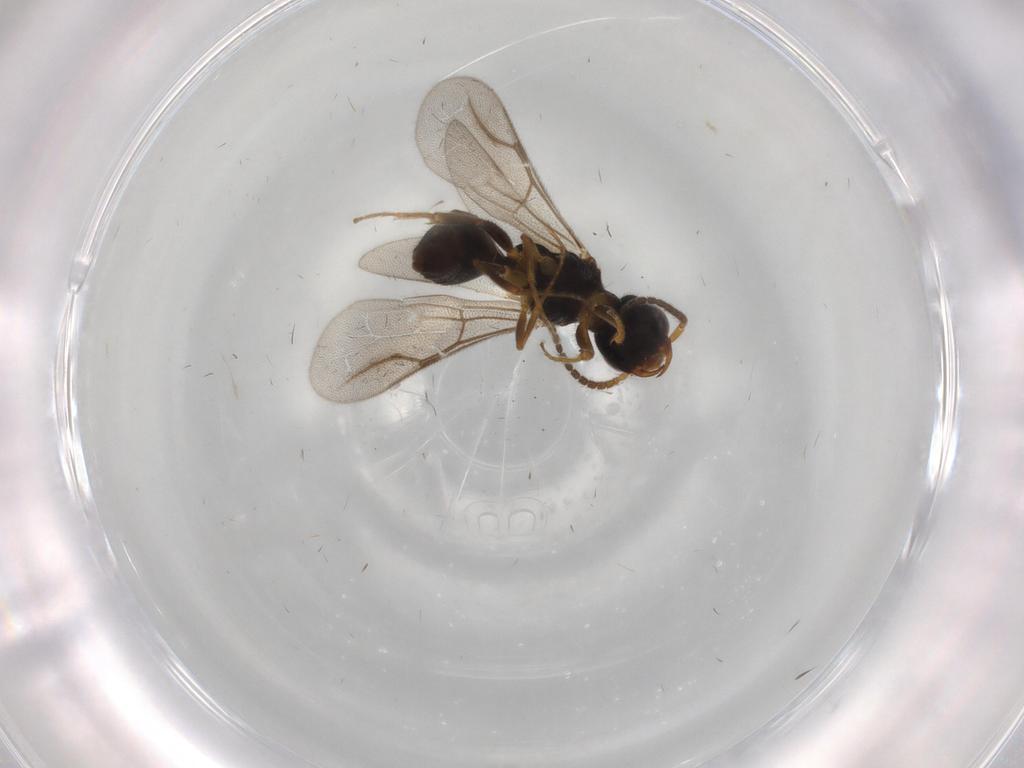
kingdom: Animalia
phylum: Arthropoda
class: Insecta
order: Hymenoptera
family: Bethylidae
